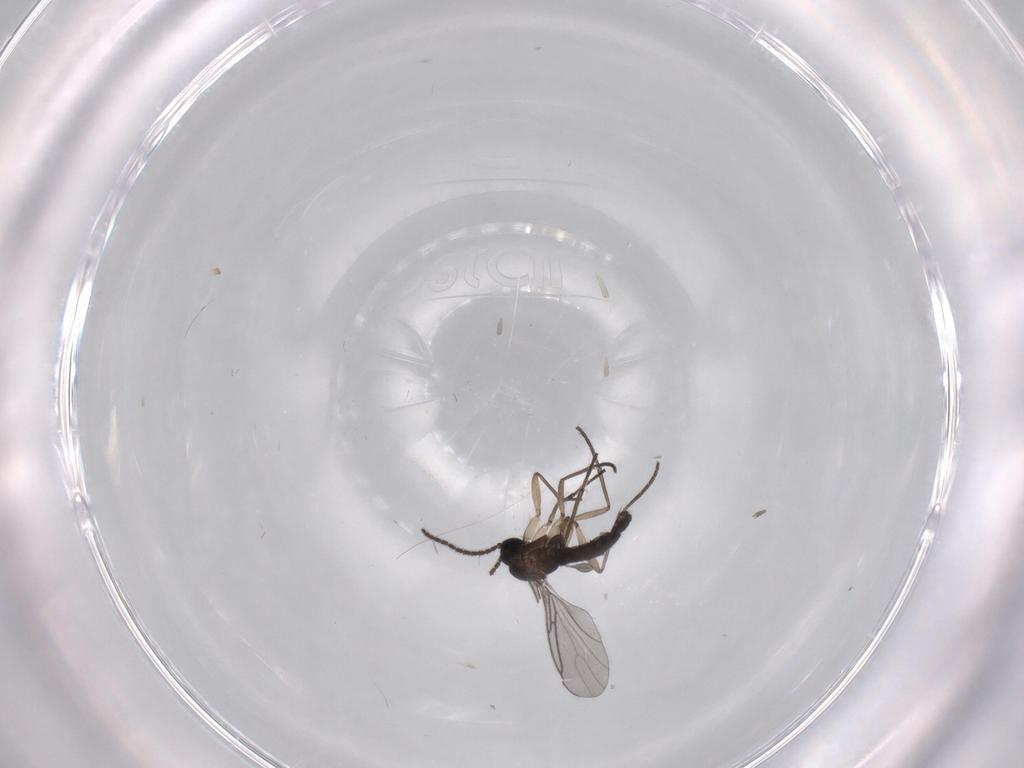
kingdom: Animalia
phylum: Arthropoda
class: Insecta
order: Diptera
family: Sciaridae
